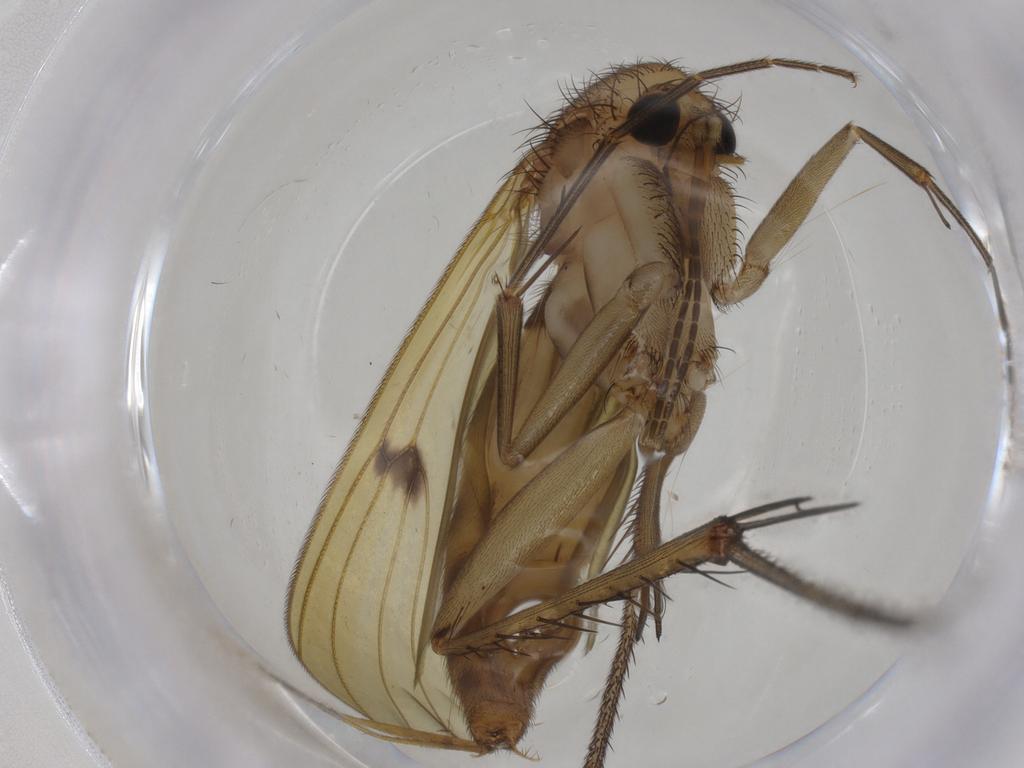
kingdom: Animalia
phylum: Arthropoda
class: Insecta
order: Diptera
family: Mycetophilidae
